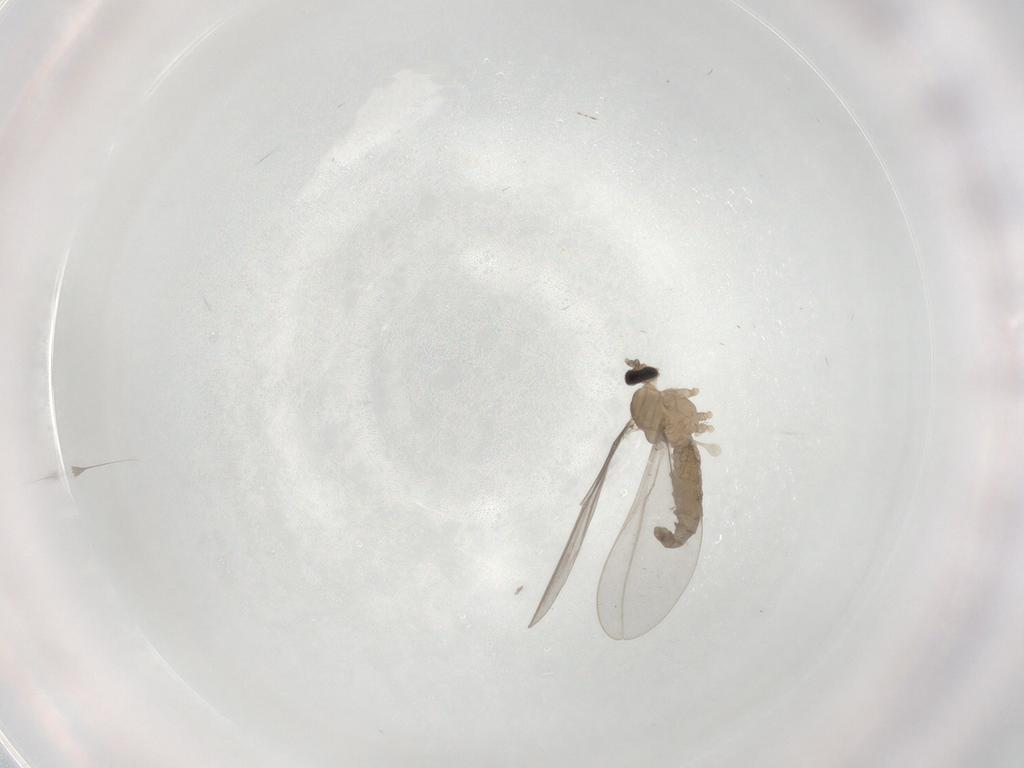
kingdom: Animalia
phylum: Arthropoda
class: Insecta
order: Diptera
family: Cecidomyiidae
